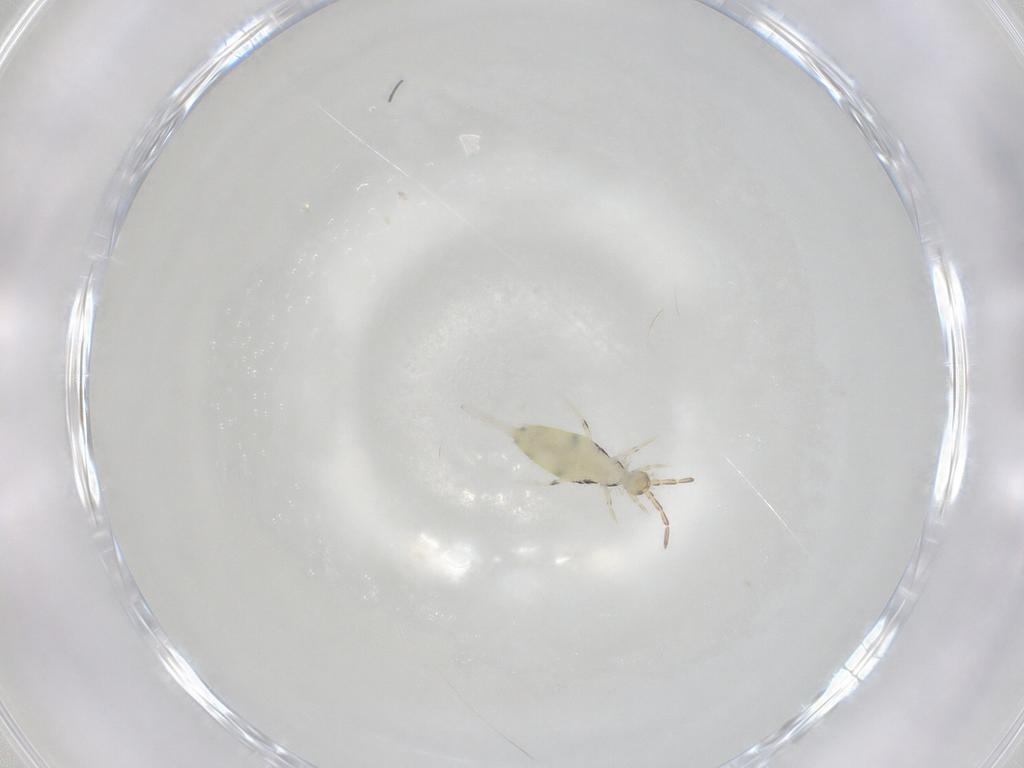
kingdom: Animalia
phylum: Arthropoda
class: Collembola
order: Entomobryomorpha
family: Entomobryidae
